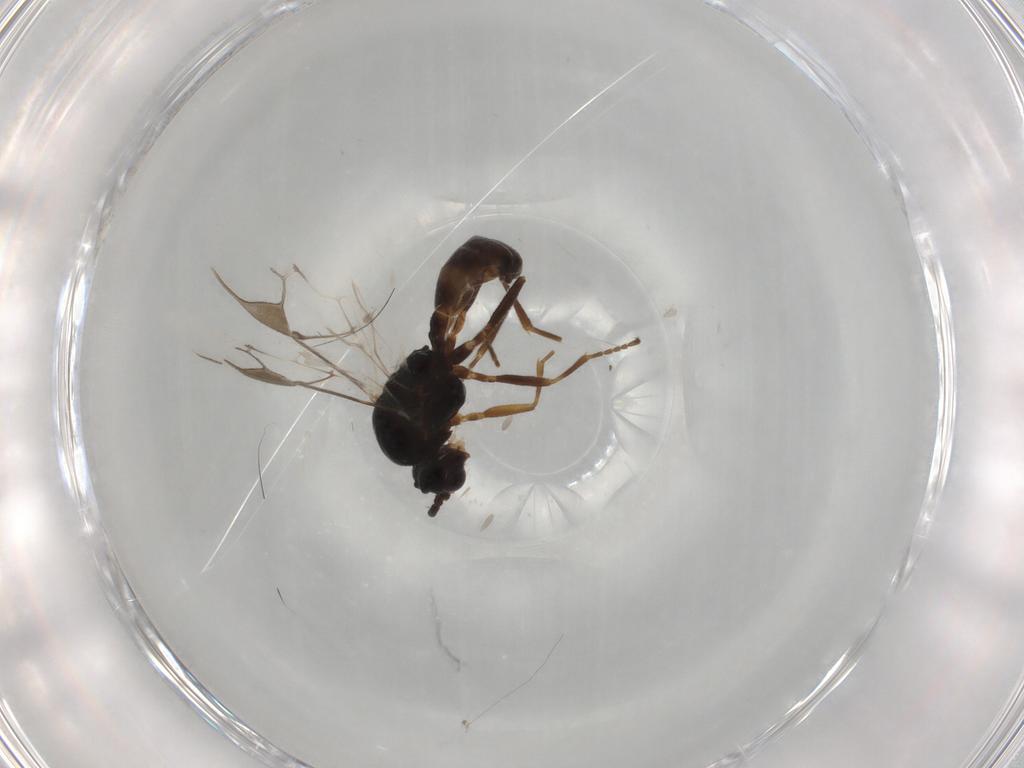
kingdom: Animalia
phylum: Arthropoda
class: Insecta
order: Hymenoptera
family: Braconidae
